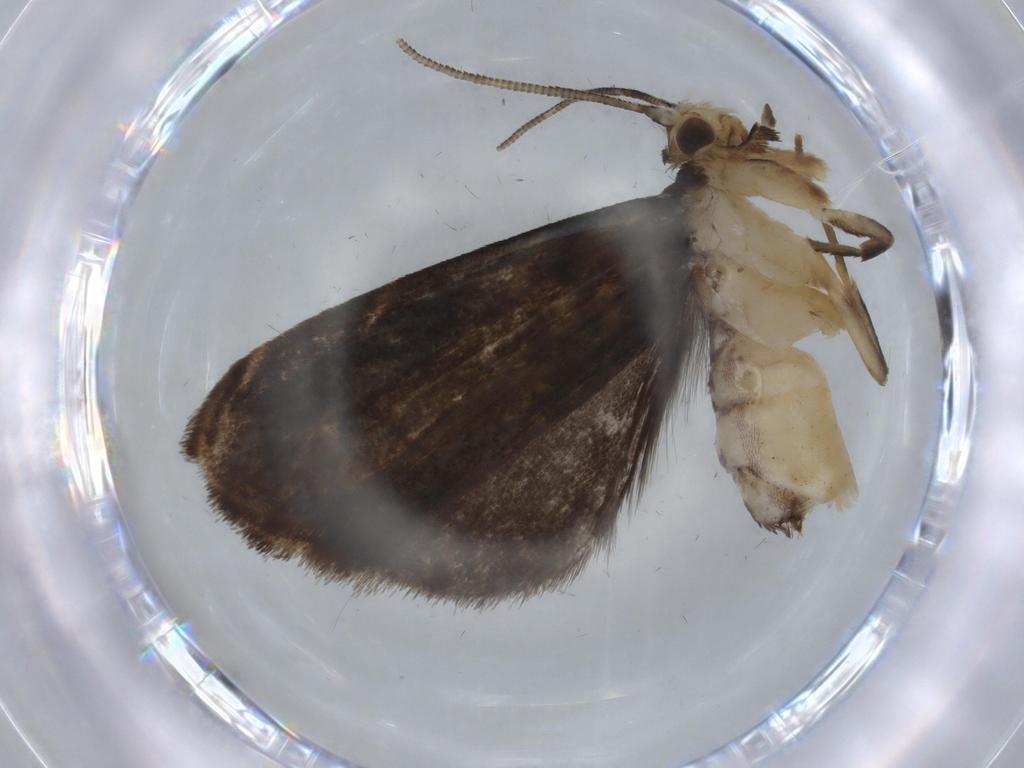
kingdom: Animalia
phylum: Arthropoda
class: Insecta
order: Lepidoptera
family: Dryadaulidae
